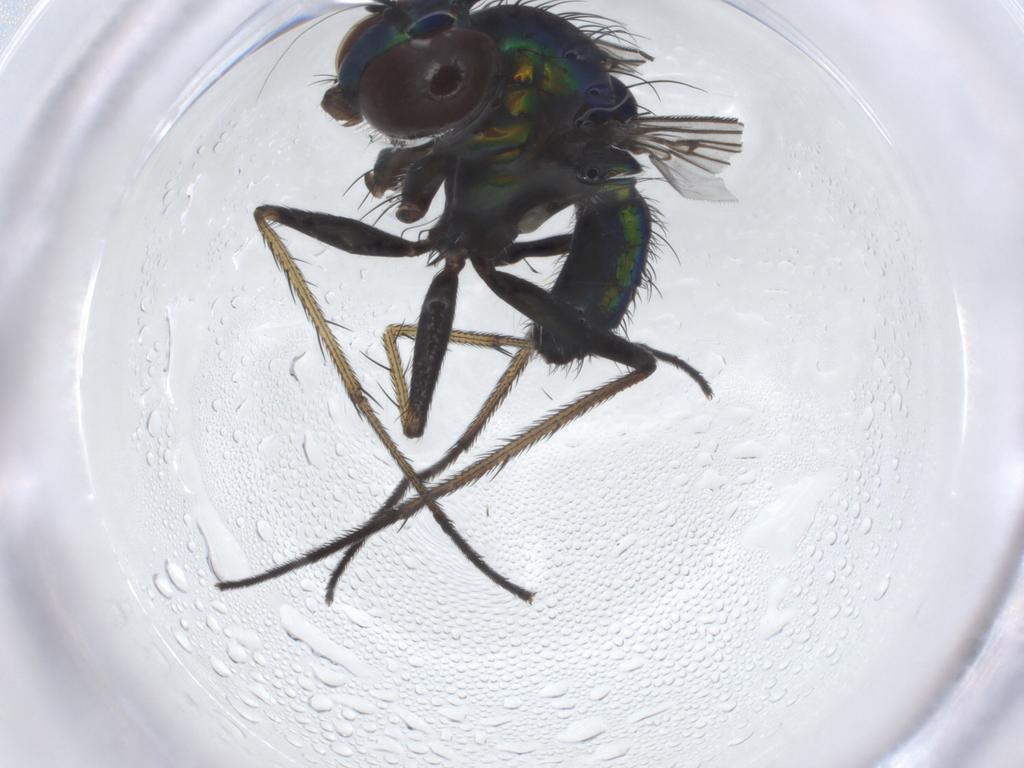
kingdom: Animalia
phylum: Arthropoda
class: Insecta
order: Diptera
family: Dolichopodidae
